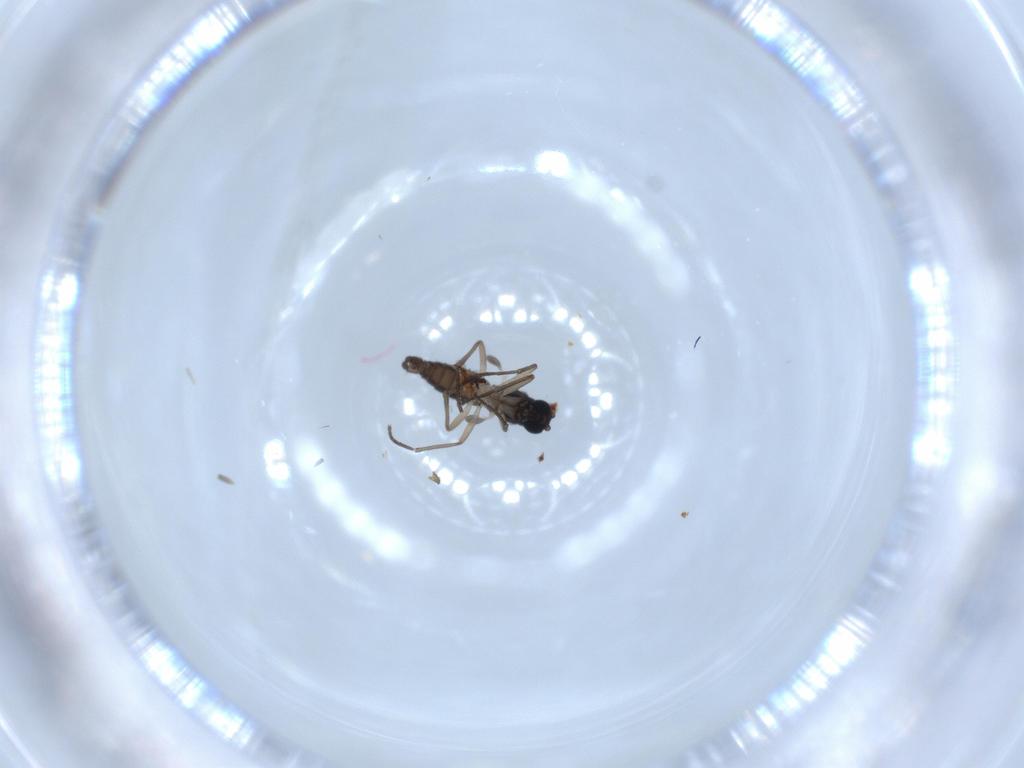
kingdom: Animalia
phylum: Arthropoda
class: Insecta
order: Diptera
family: Sciaridae
